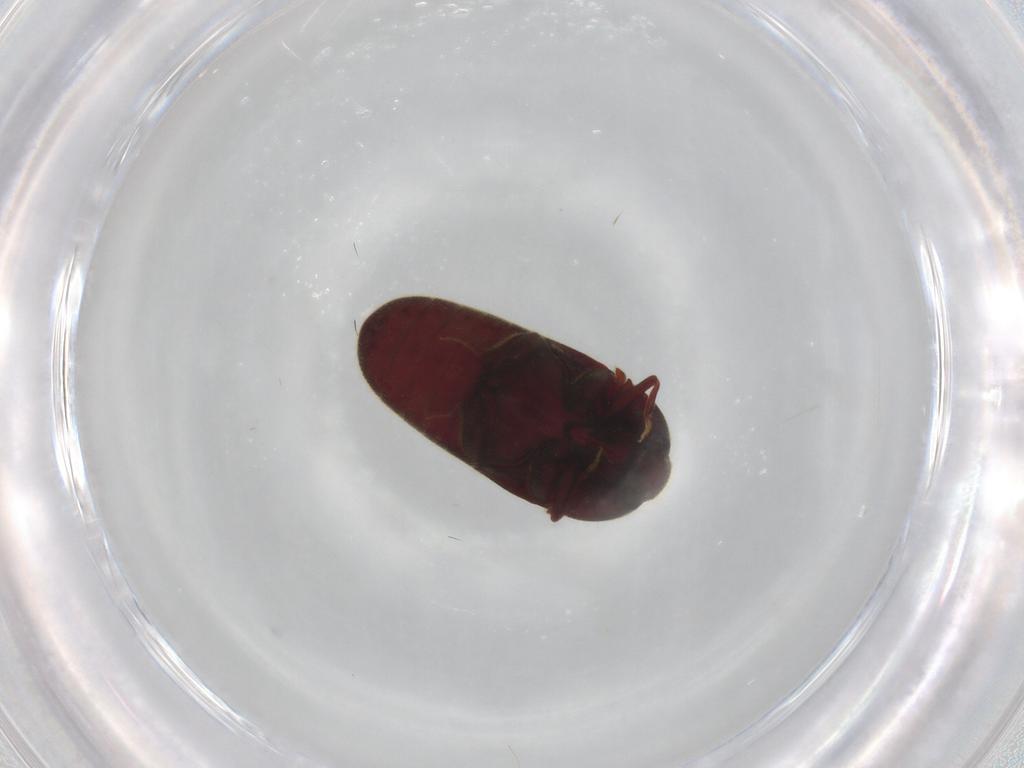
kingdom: Animalia
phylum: Arthropoda
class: Insecta
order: Coleoptera
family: Throscidae
